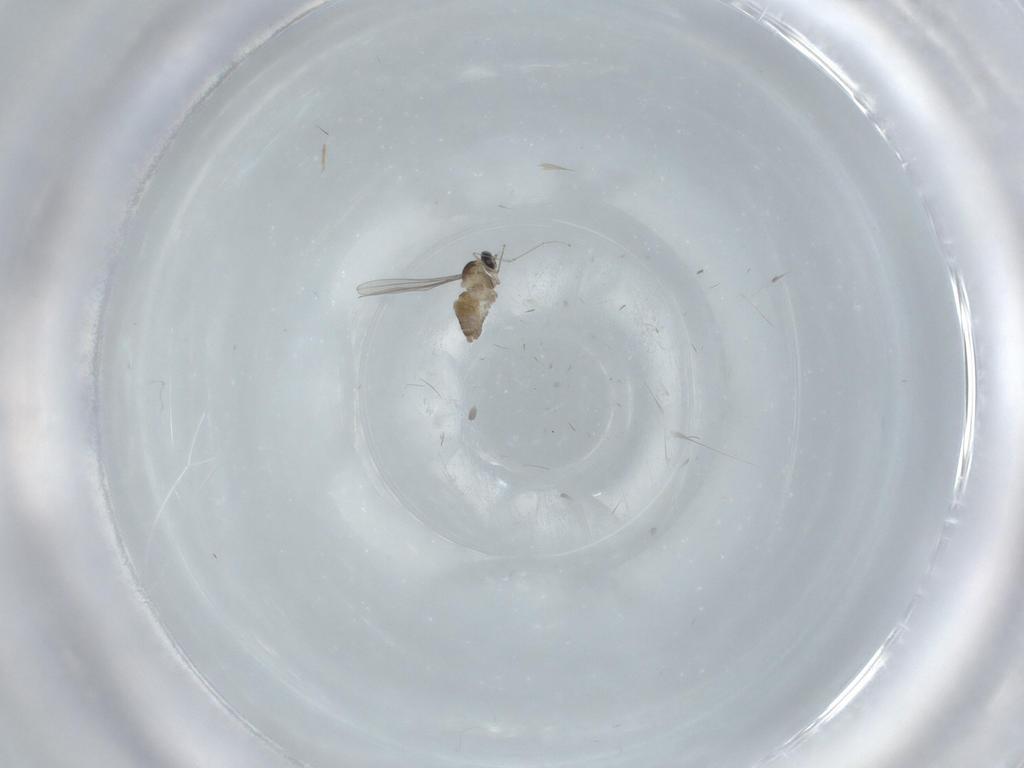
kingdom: Animalia
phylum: Arthropoda
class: Insecta
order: Diptera
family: Cecidomyiidae
